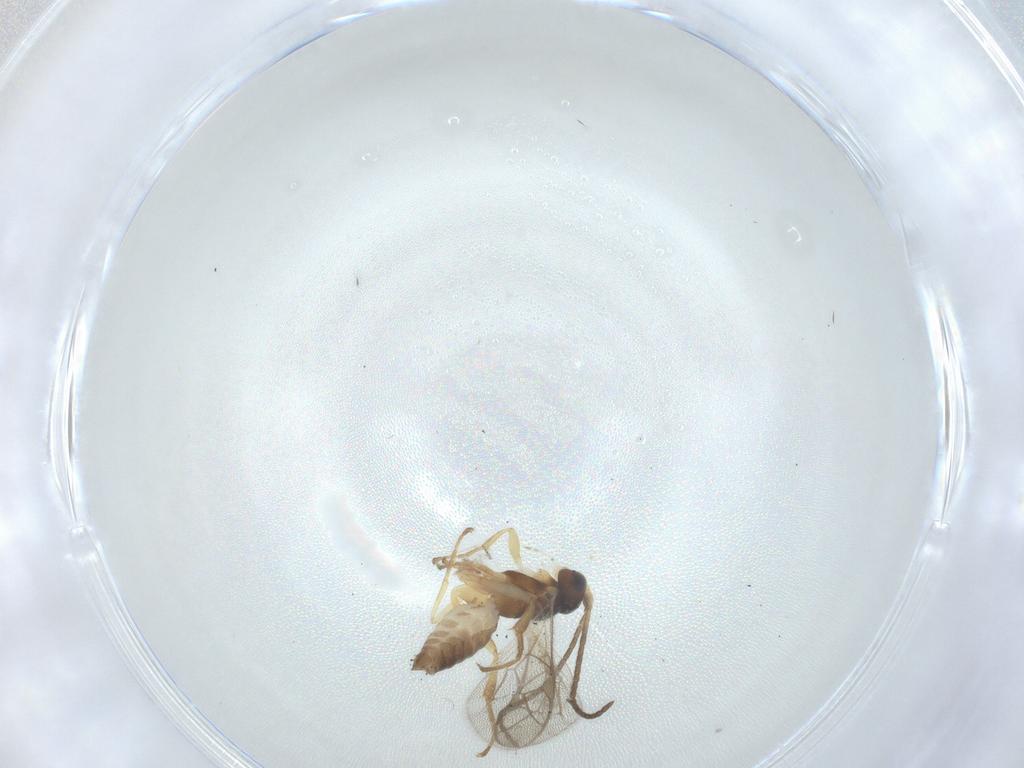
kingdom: Animalia
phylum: Arthropoda
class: Insecta
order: Hymenoptera
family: Ichneumonidae
